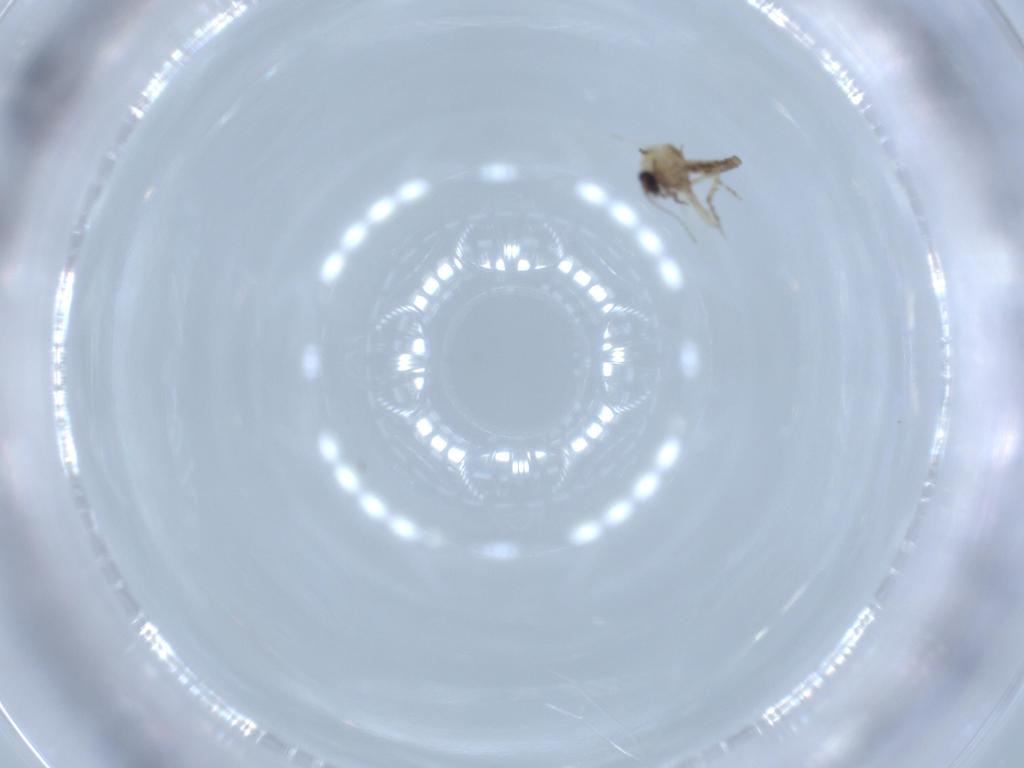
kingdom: Animalia
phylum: Arthropoda
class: Insecta
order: Diptera
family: Ceratopogonidae
